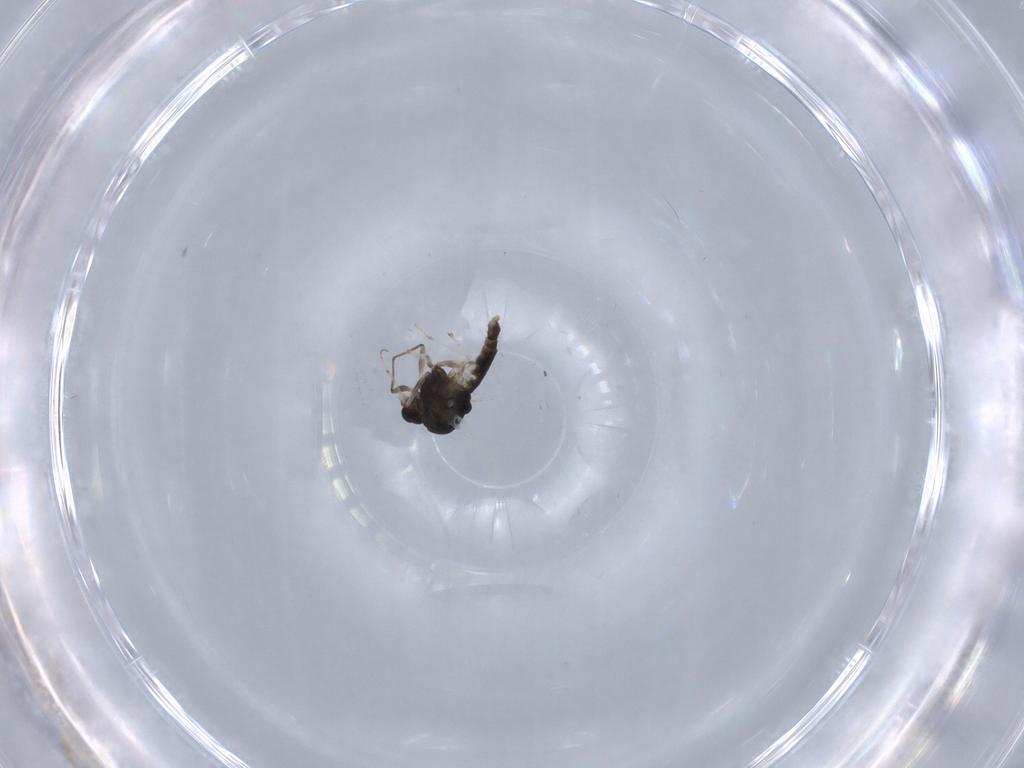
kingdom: Animalia
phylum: Arthropoda
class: Insecta
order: Diptera
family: Chironomidae
